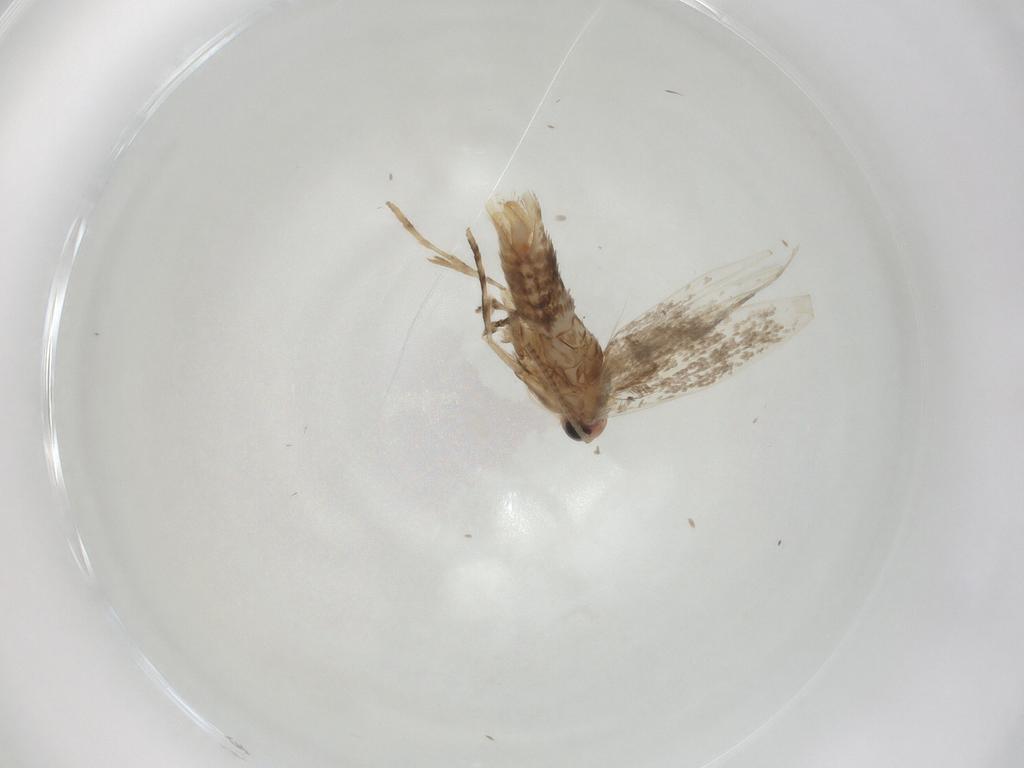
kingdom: Animalia
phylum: Arthropoda
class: Insecta
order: Lepidoptera
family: Gracillariidae
